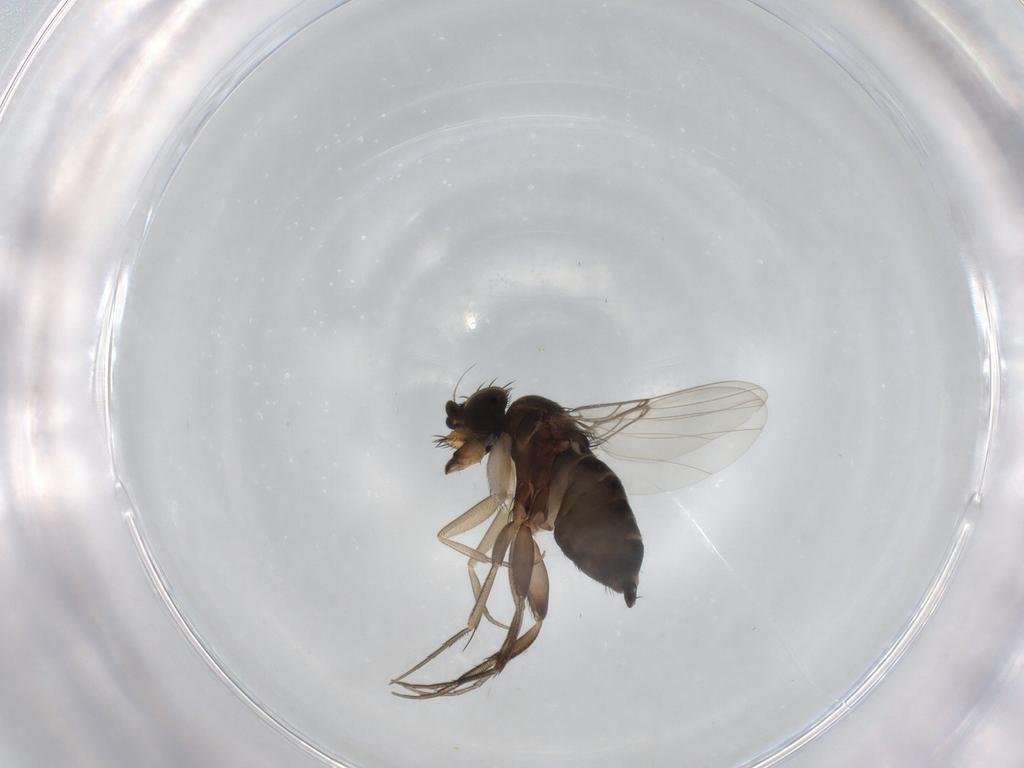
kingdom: Animalia
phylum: Arthropoda
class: Insecta
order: Diptera
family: Phoridae
